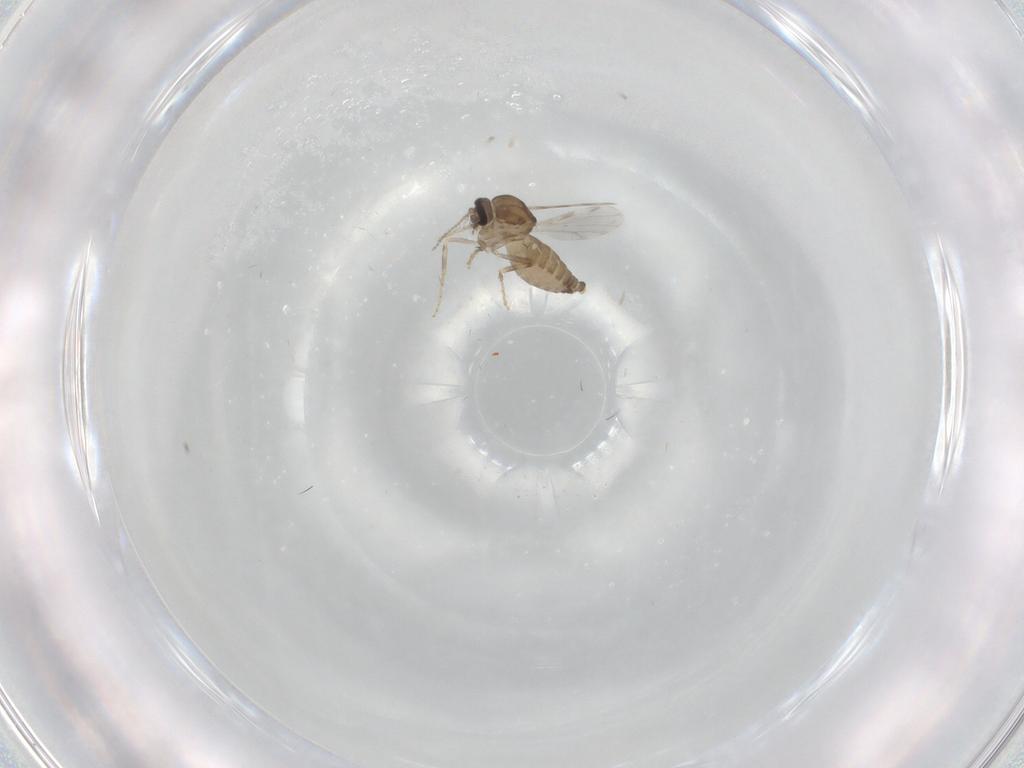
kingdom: Animalia
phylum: Arthropoda
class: Insecta
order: Diptera
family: Ceratopogonidae
